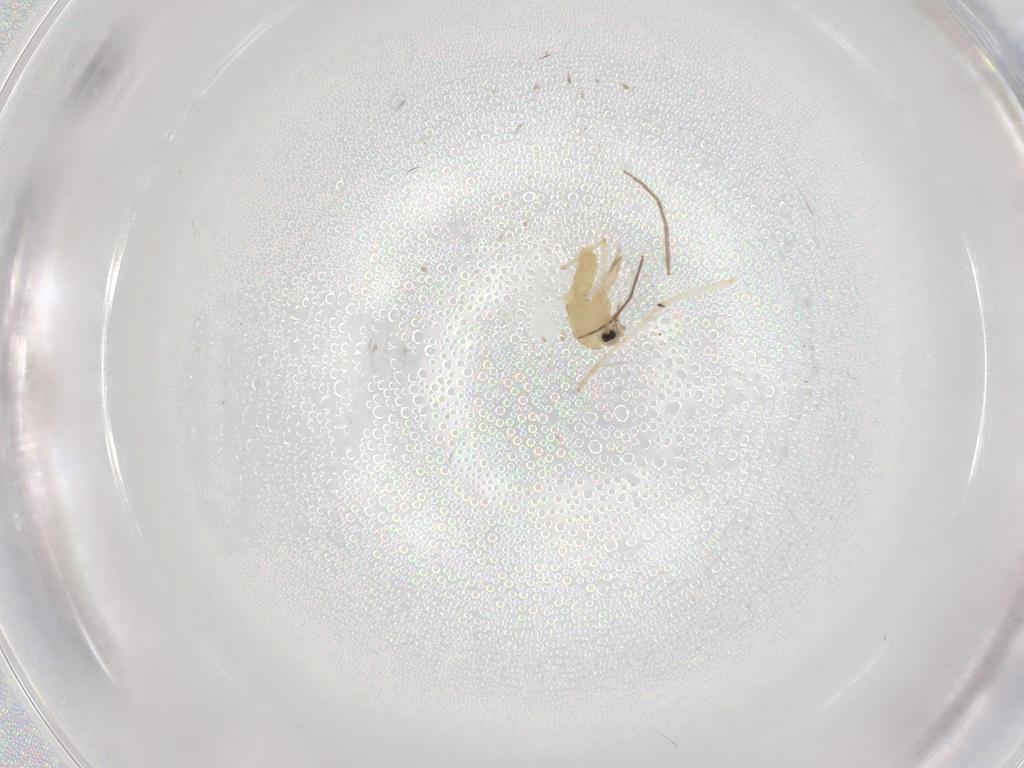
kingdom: Animalia
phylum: Arthropoda
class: Insecta
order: Diptera
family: Chironomidae
